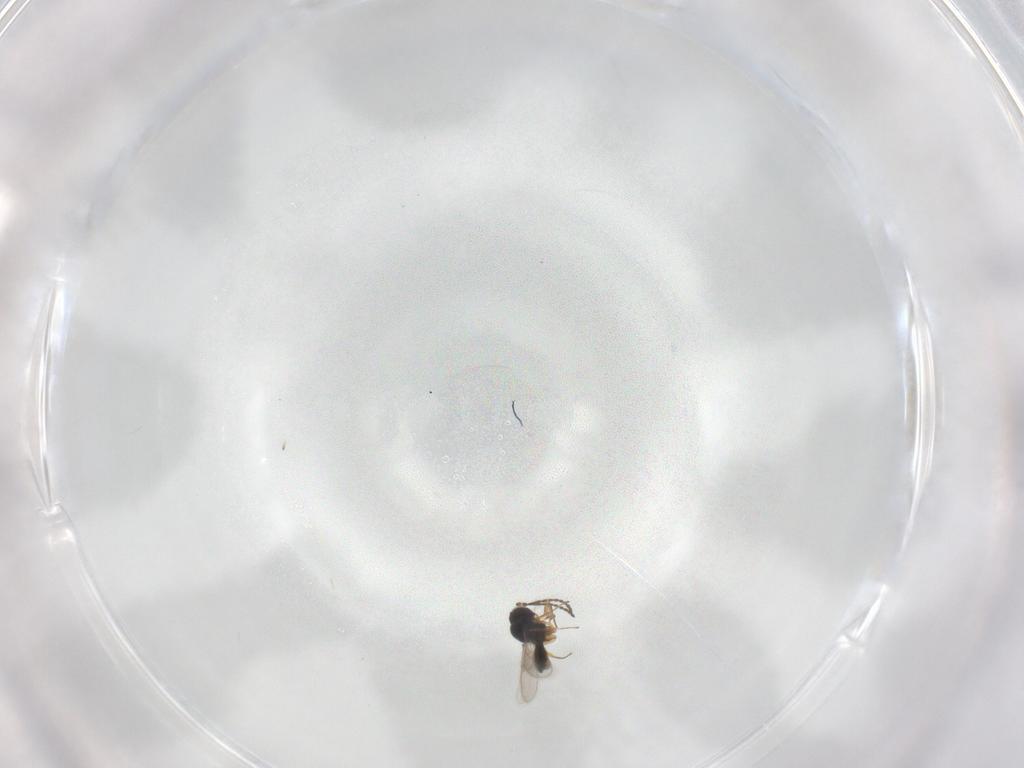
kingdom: Animalia
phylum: Arthropoda
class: Insecta
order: Hymenoptera
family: Scelionidae
